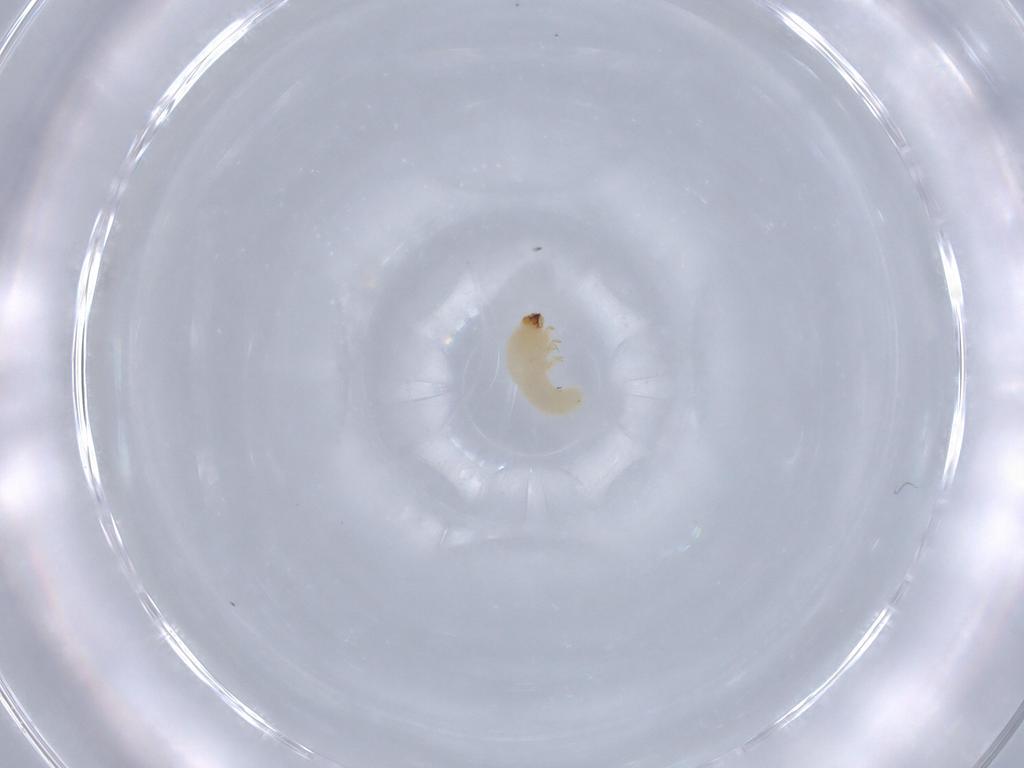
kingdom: Animalia
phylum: Arthropoda
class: Insecta
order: Coleoptera
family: Bostrichidae
